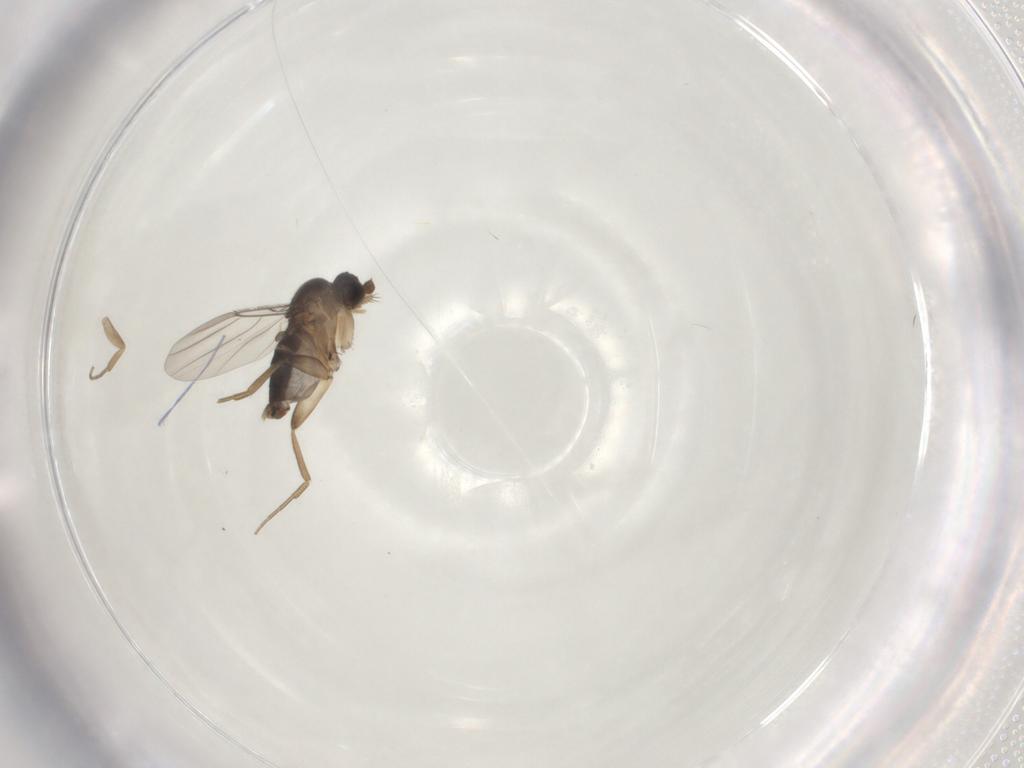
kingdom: Animalia
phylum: Arthropoda
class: Insecta
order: Diptera
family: Phoridae
